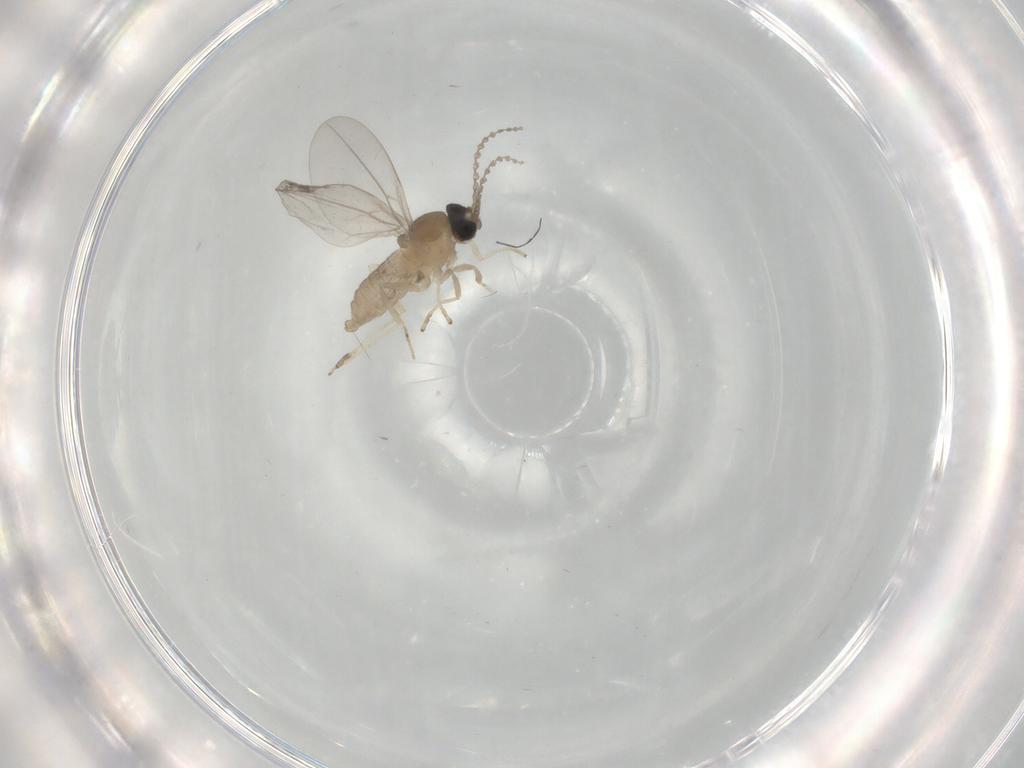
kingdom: Animalia
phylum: Arthropoda
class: Insecta
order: Diptera
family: Cecidomyiidae
